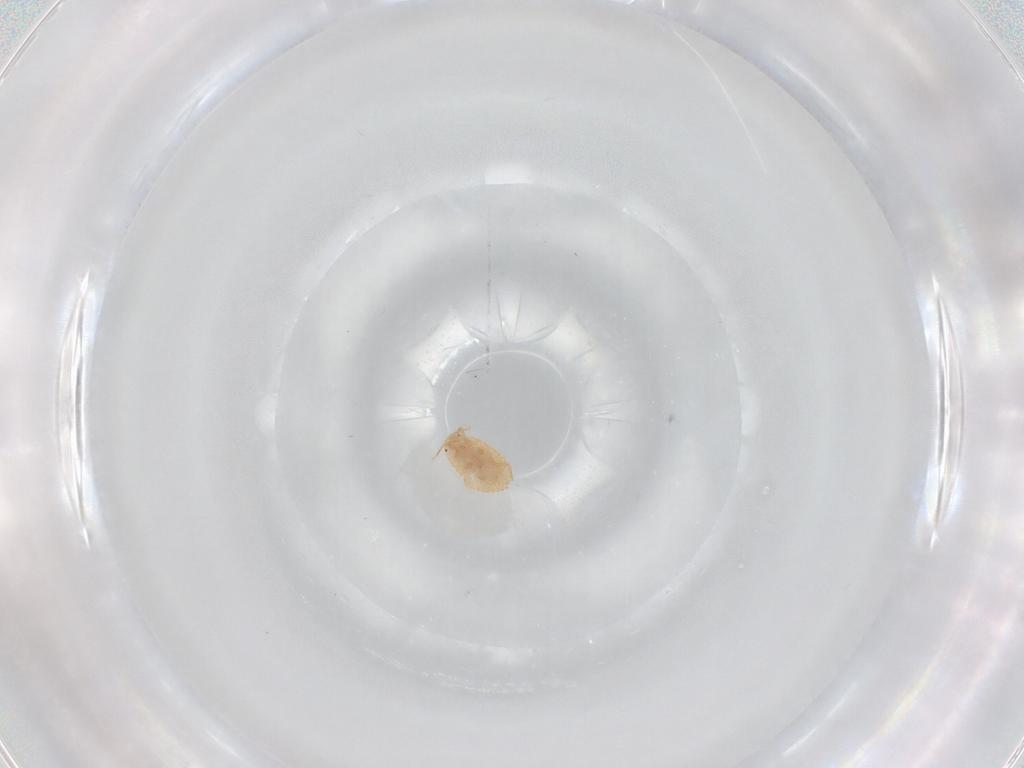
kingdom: Animalia
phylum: Arthropoda
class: Insecta
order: Hemiptera
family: Pseudococcidae
